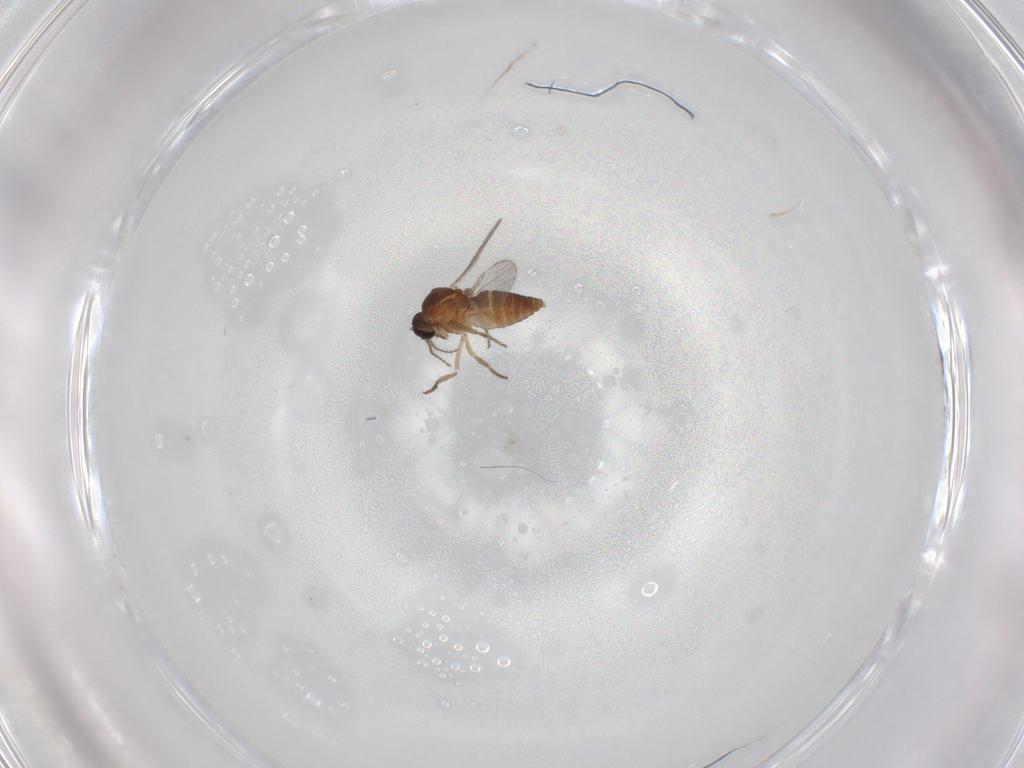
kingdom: Animalia
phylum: Arthropoda
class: Insecta
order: Diptera
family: Ceratopogonidae
